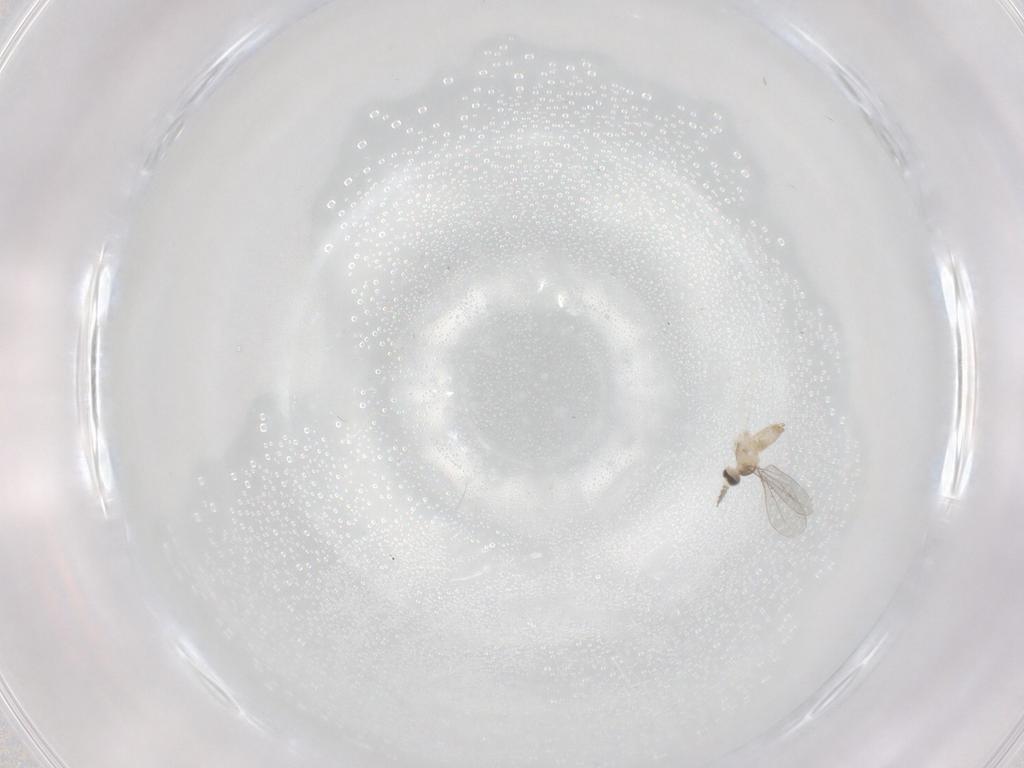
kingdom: Animalia
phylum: Arthropoda
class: Insecta
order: Diptera
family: Cecidomyiidae
